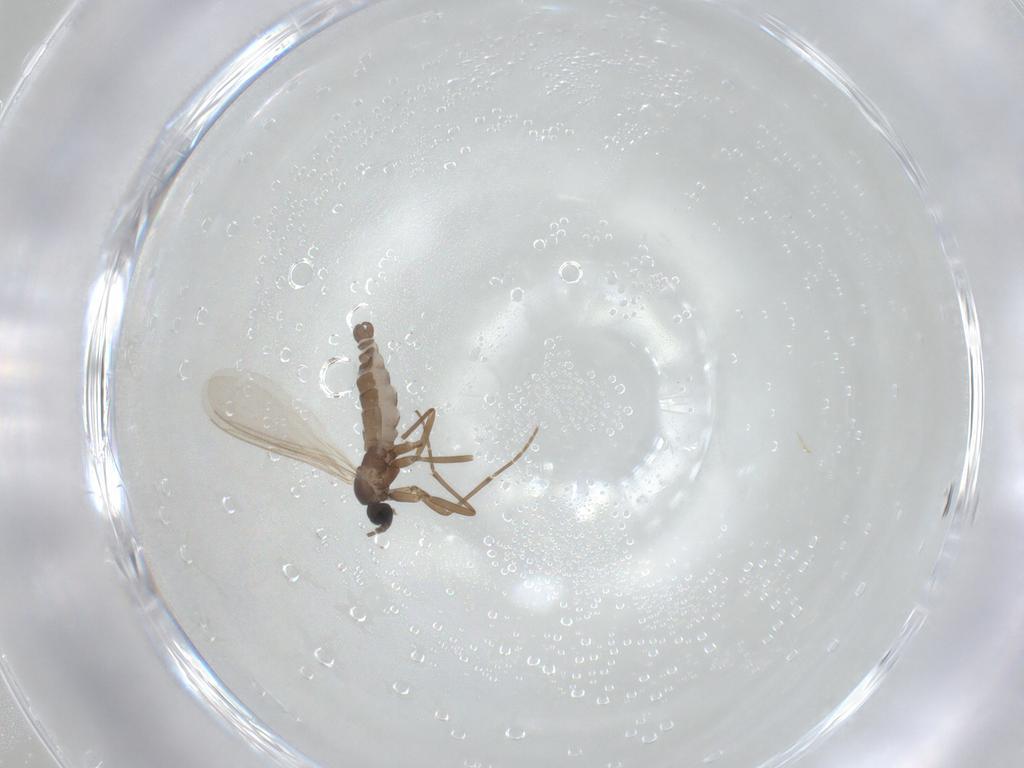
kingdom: Animalia
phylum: Arthropoda
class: Insecta
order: Diptera
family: Sciaridae
